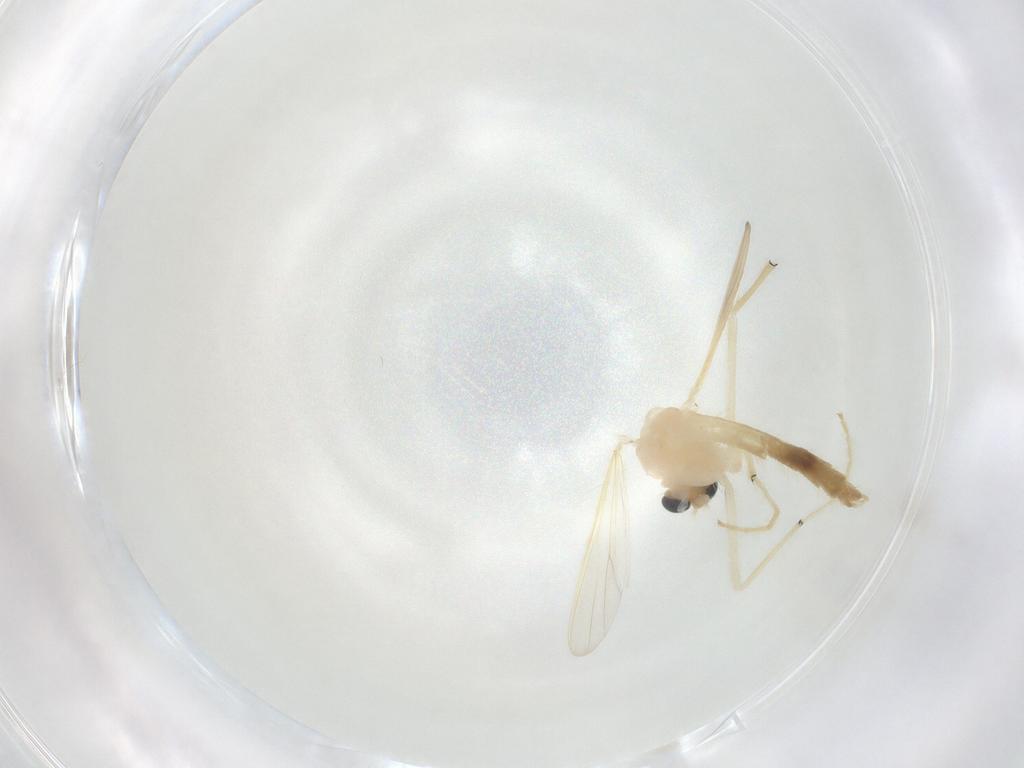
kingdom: Animalia
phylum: Arthropoda
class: Insecta
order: Diptera
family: Chironomidae
